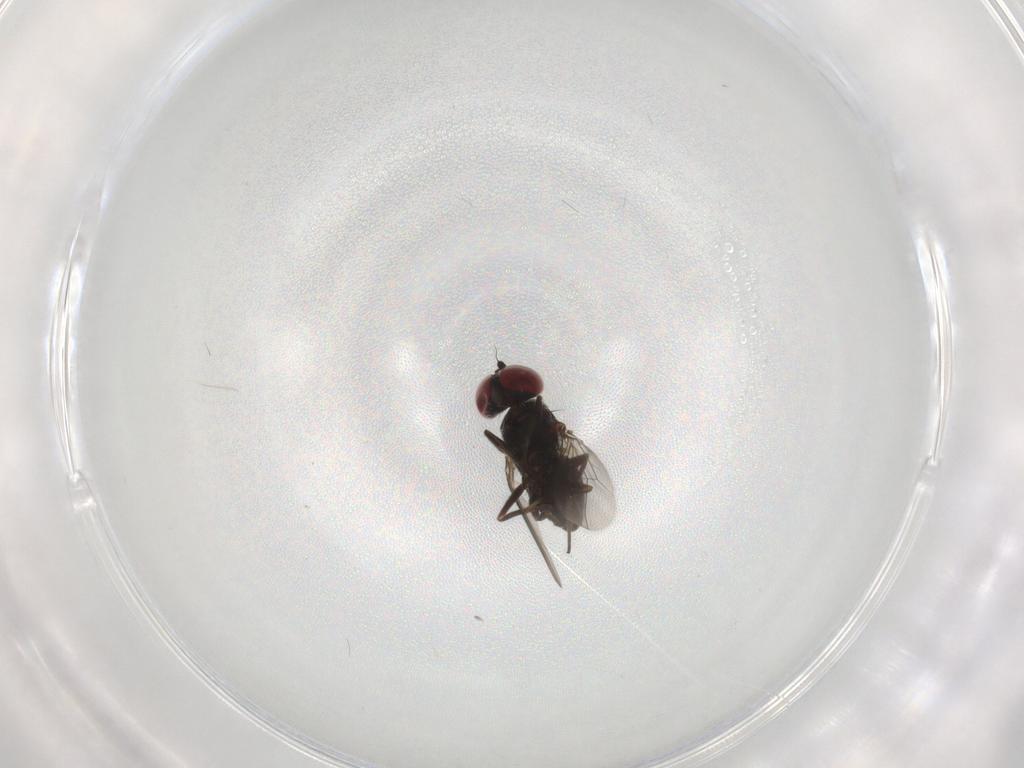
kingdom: Animalia
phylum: Arthropoda
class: Insecta
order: Diptera
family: Dolichopodidae
